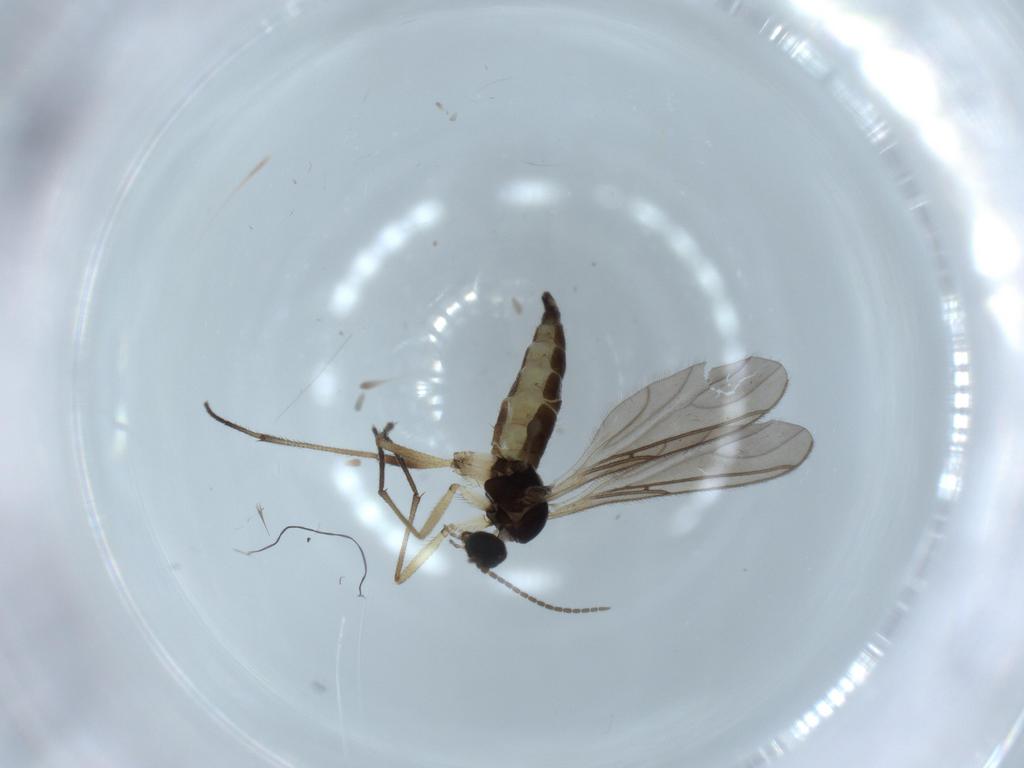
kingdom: Animalia
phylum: Arthropoda
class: Insecta
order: Diptera
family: Sciaridae
